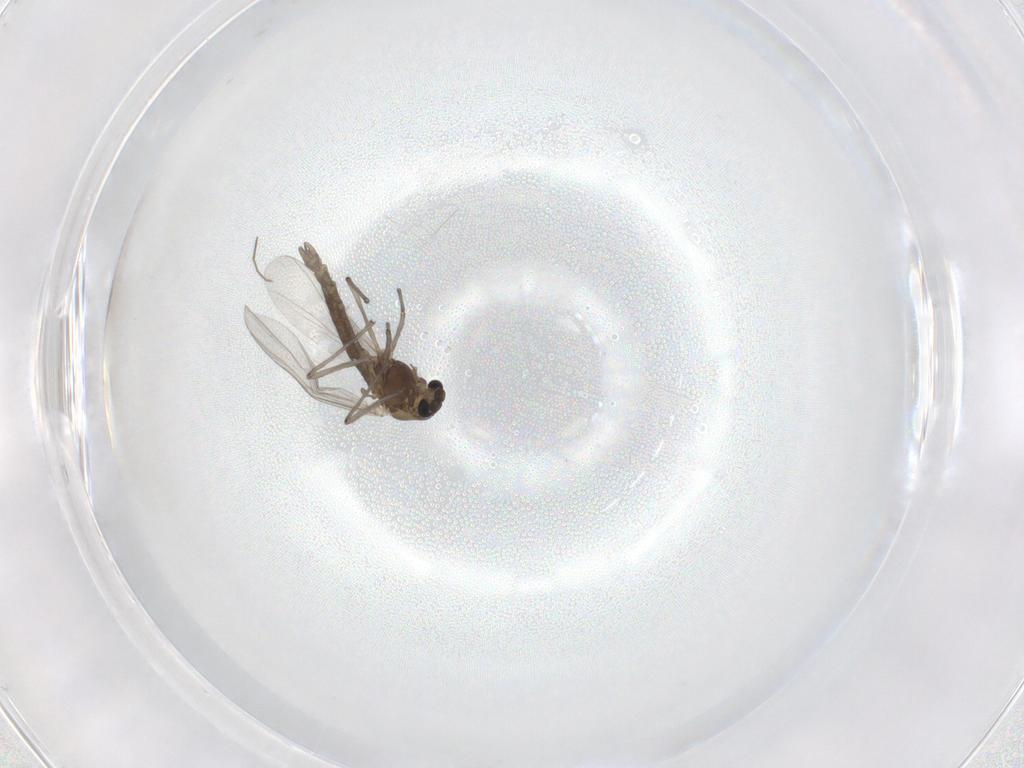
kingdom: Animalia
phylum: Arthropoda
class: Insecta
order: Diptera
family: Chironomidae
